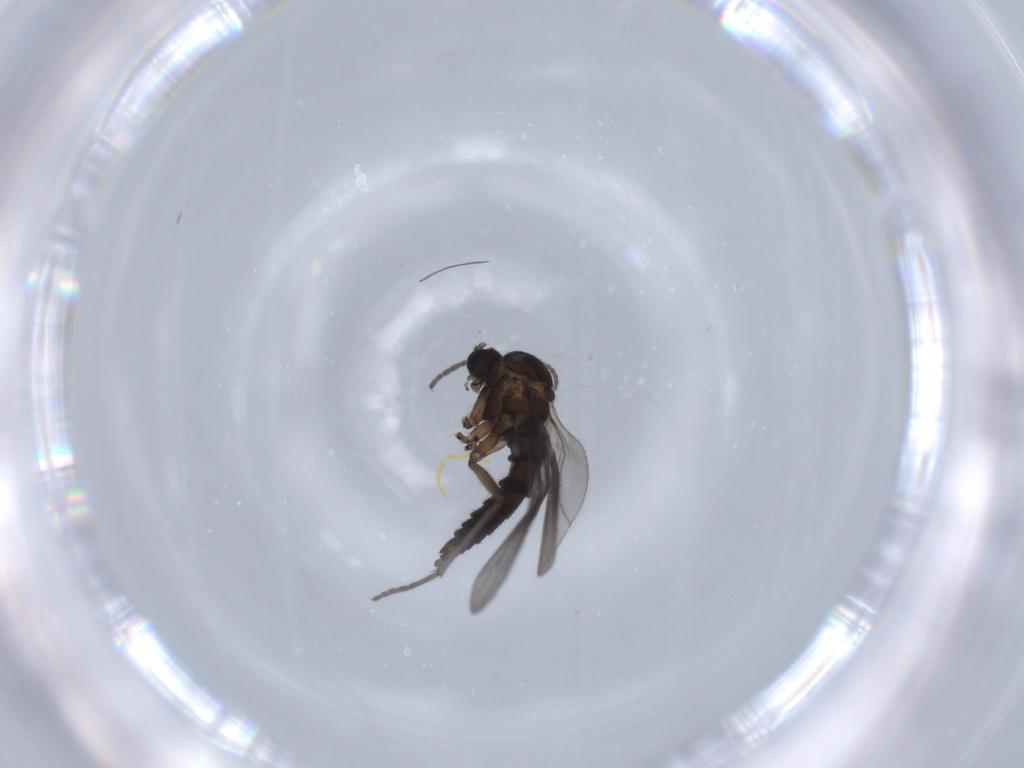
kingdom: Animalia
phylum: Arthropoda
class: Insecta
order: Diptera
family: Sciaridae
